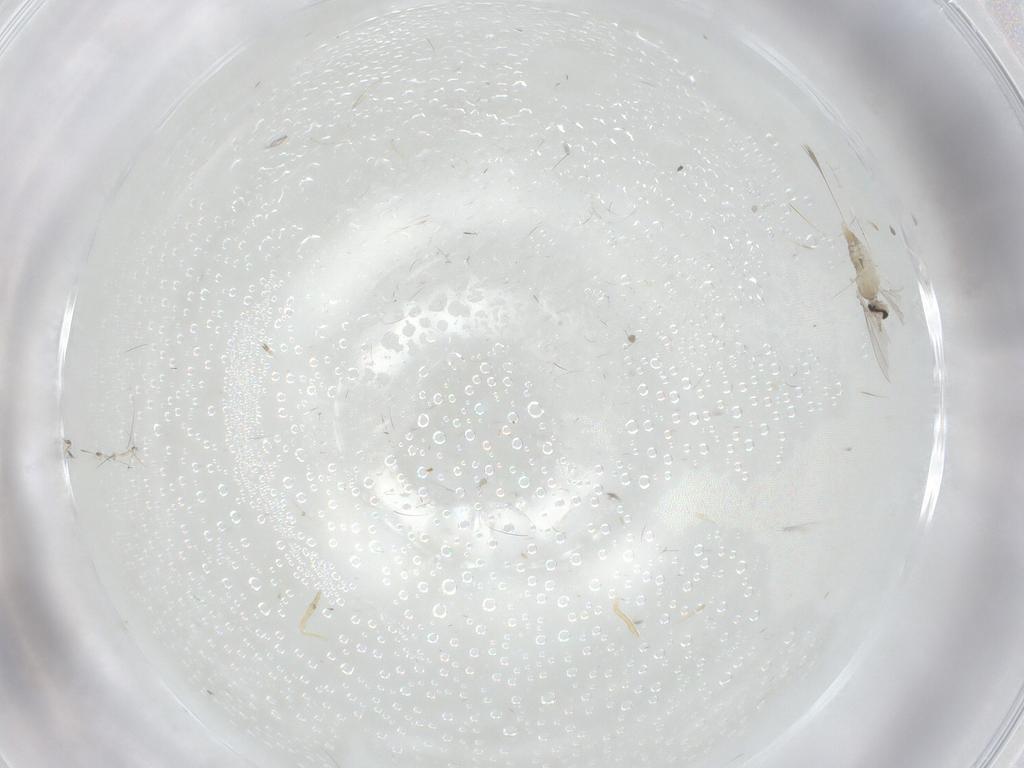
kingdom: Animalia
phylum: Arthropoda
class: Insecta
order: Diptera
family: Cecidomyiidae
